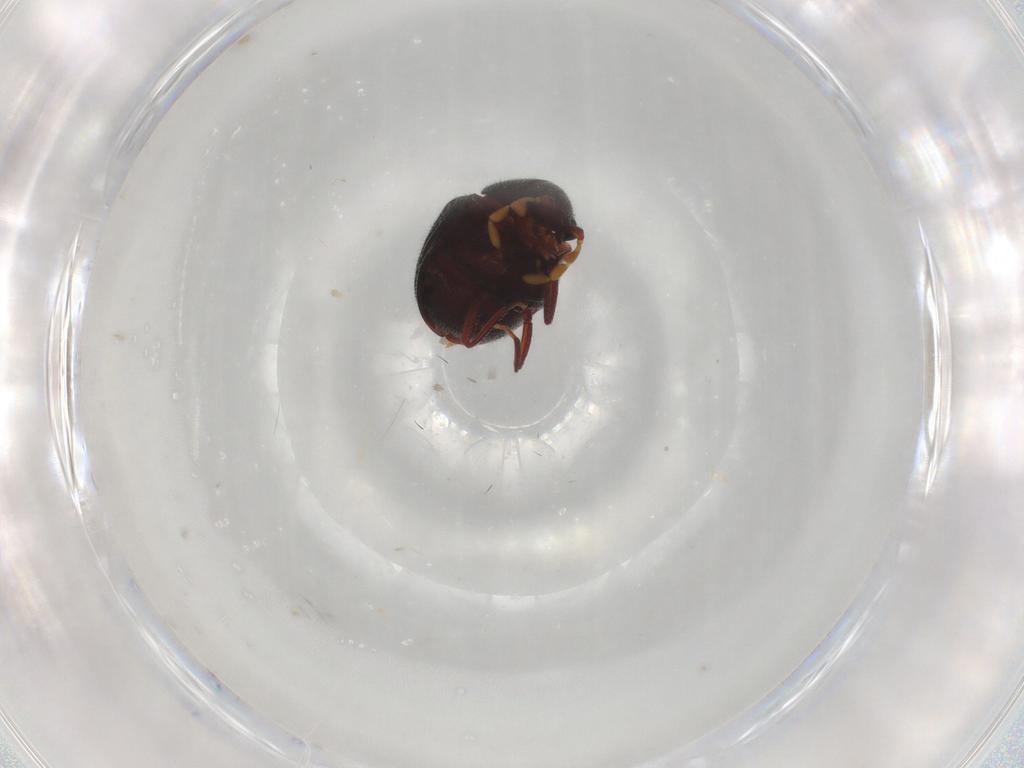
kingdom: Animalia
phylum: Arthropoda
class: Insecta
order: Coleoptera
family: Ptinidae
